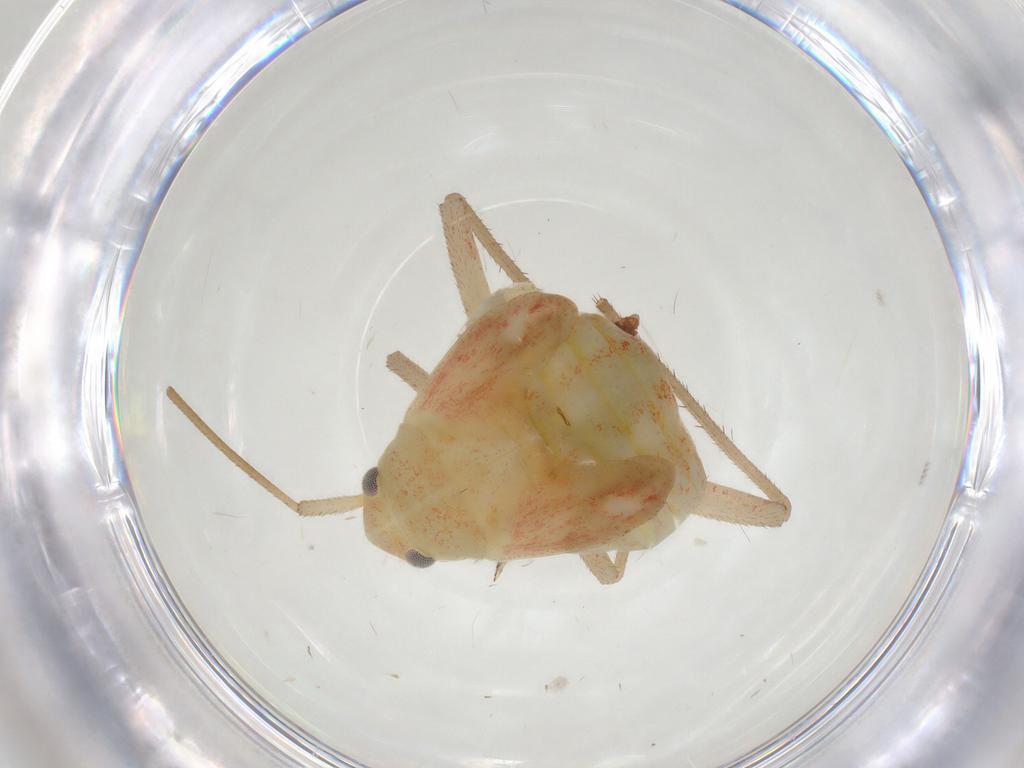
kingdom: Animalia
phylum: Arthropoda
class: Insecta
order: Hemiptera
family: Miridae
